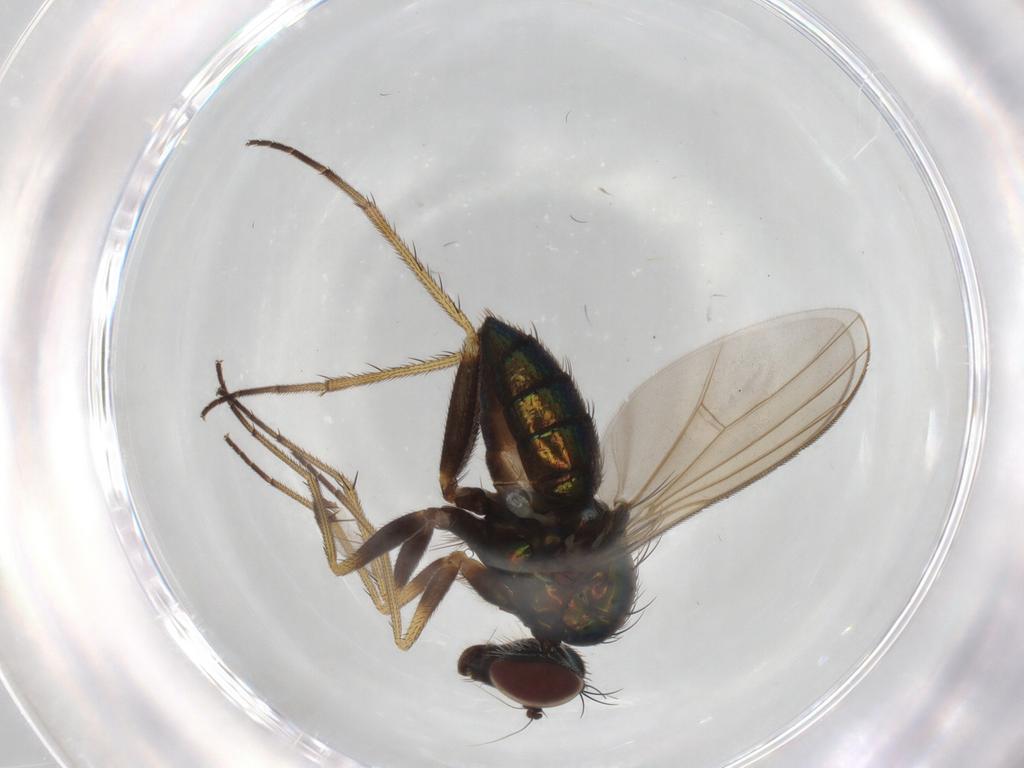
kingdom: Animalia
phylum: Arthropoda
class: Insecta
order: Diptera
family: Dolichopodidae
